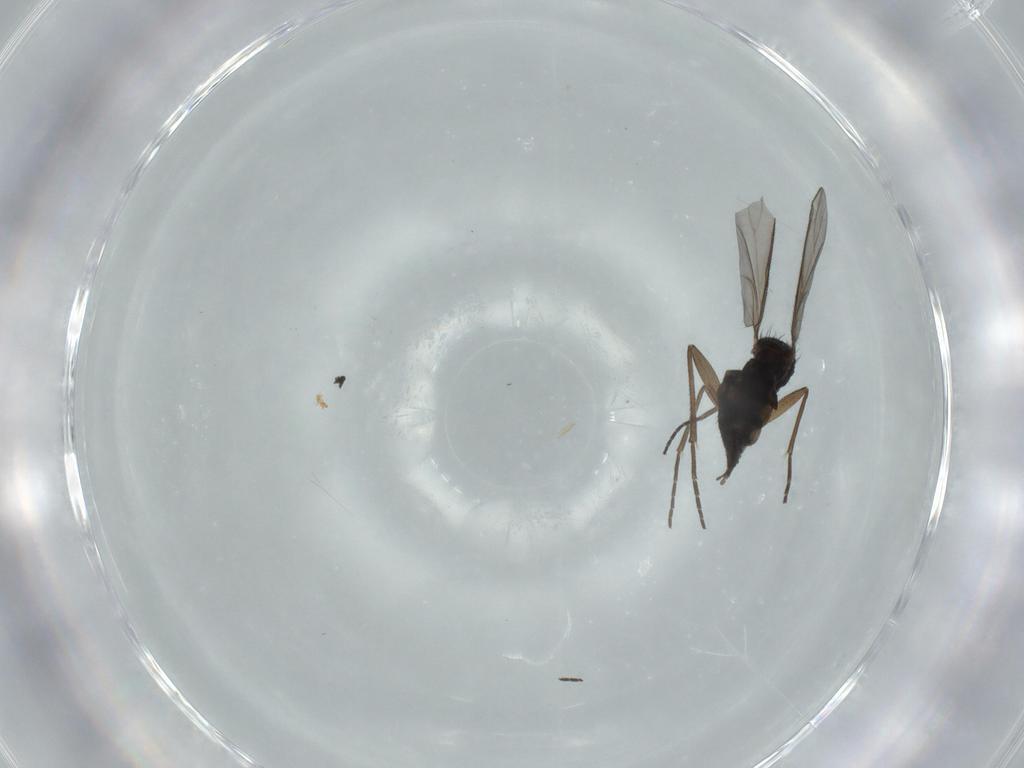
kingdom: Animalia
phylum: Arthropoda
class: Insecta
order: Diptera
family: Sciaridae
